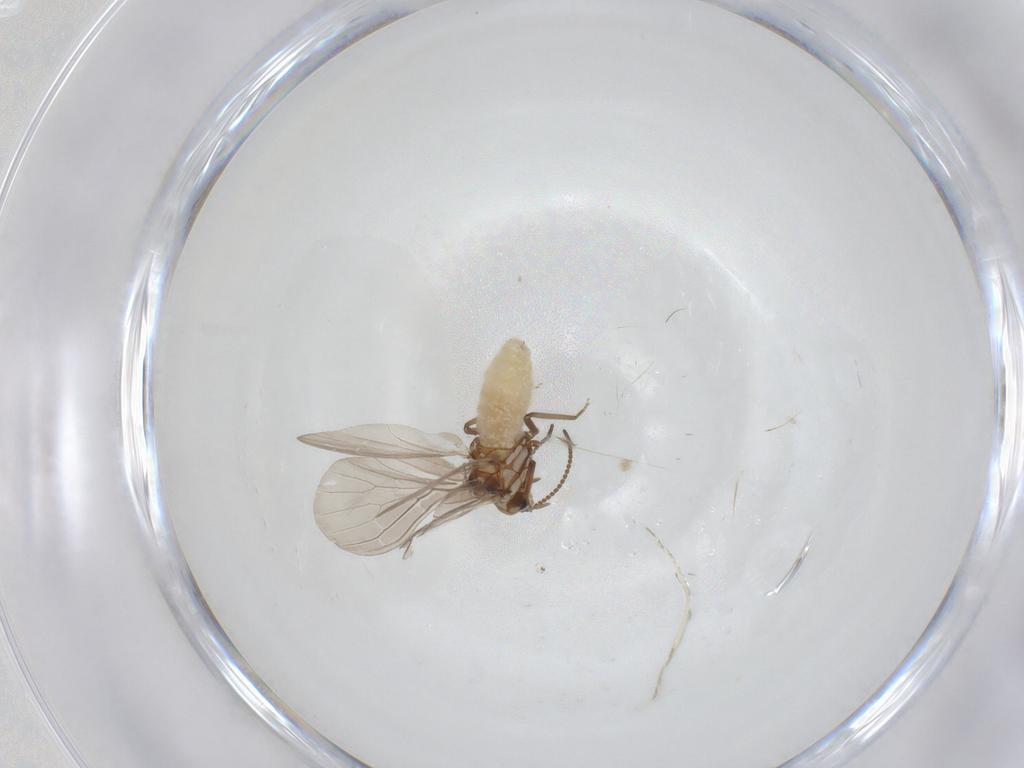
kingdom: Animalia
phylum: Arthropoda
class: Insecta
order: Neuroptera
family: Coniopterygidae
